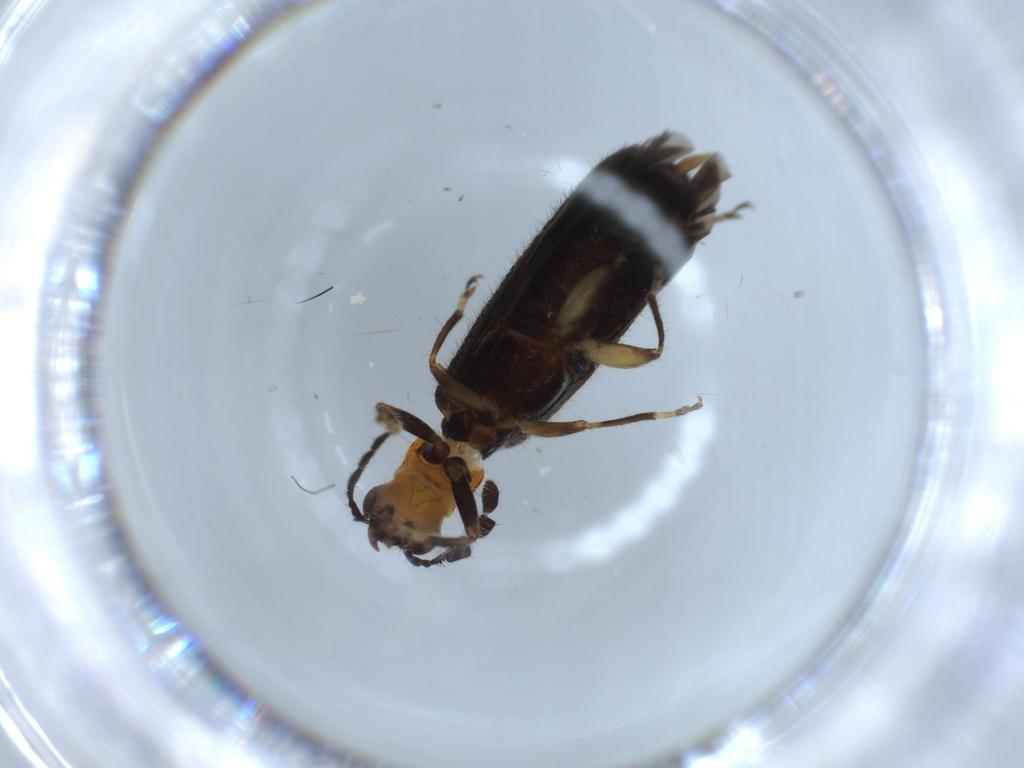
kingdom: Animalia
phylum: Arthropoda
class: Insecta
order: Coleoptera
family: Cleridae
